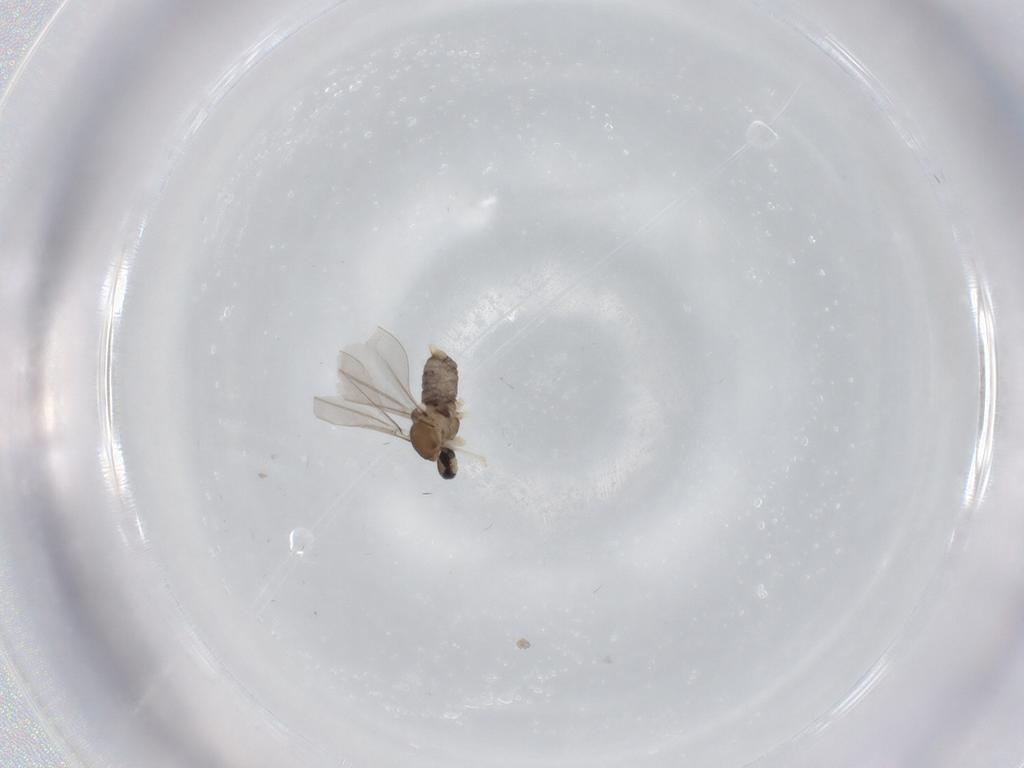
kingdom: Animalia
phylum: Arthropoda
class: Insecta
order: Diptera
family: Cecidomyiidae
